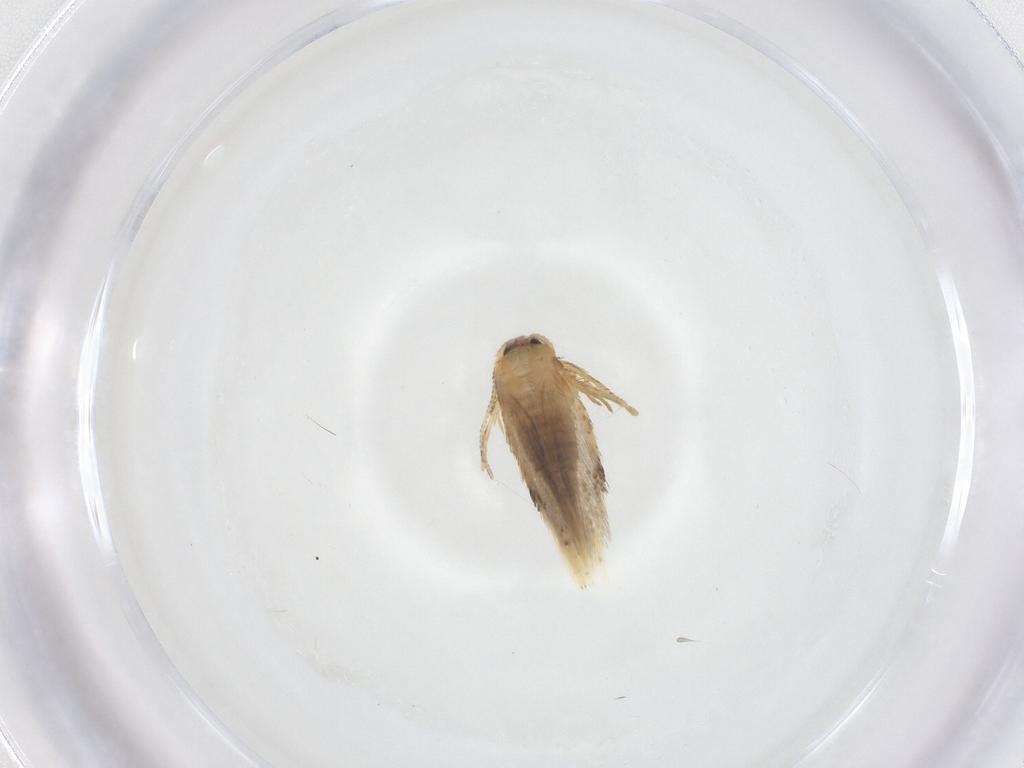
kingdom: Animalia
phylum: Arthropoda
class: Insecta
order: Lepidoptera
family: Nepticulidae
